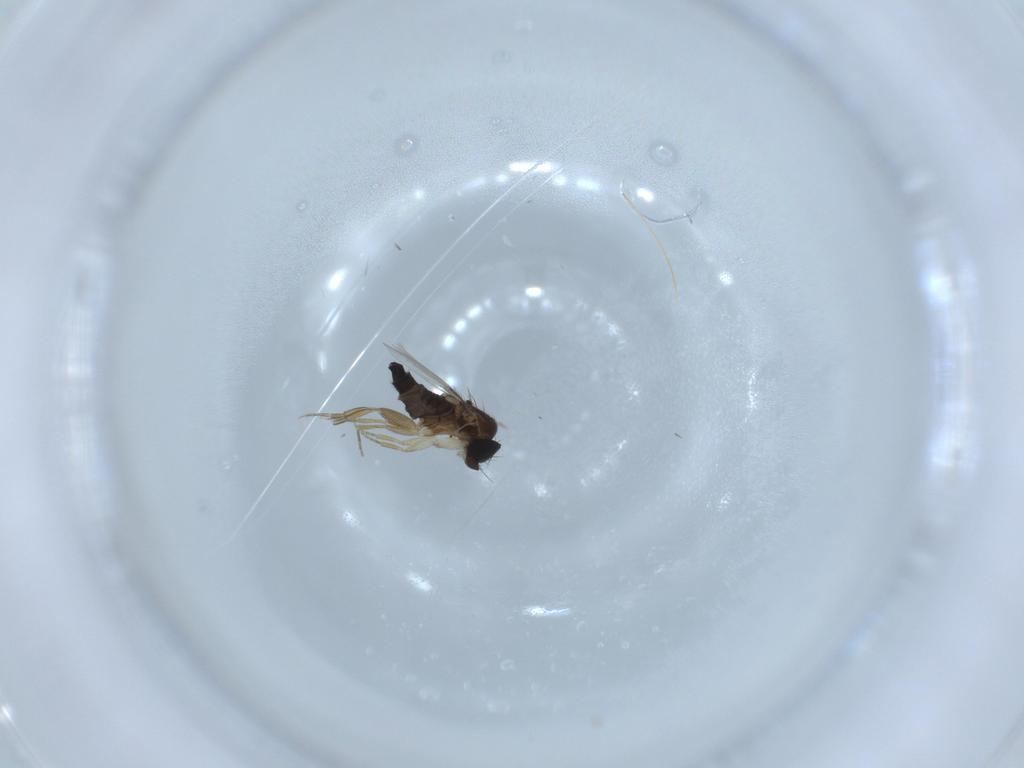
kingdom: Animalia
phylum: Arthropoda
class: Insecta
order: Diptera
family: Phoridae
